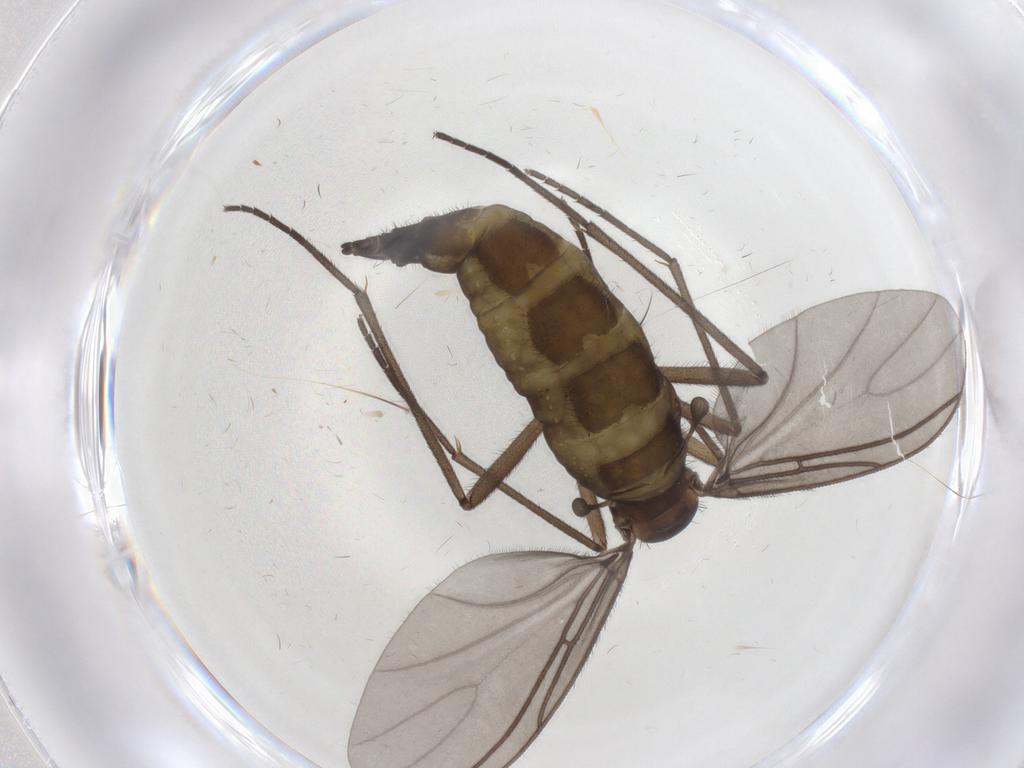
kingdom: Animalia
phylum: Arthropoda
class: Insecta
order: Diptera
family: Sciaridae
